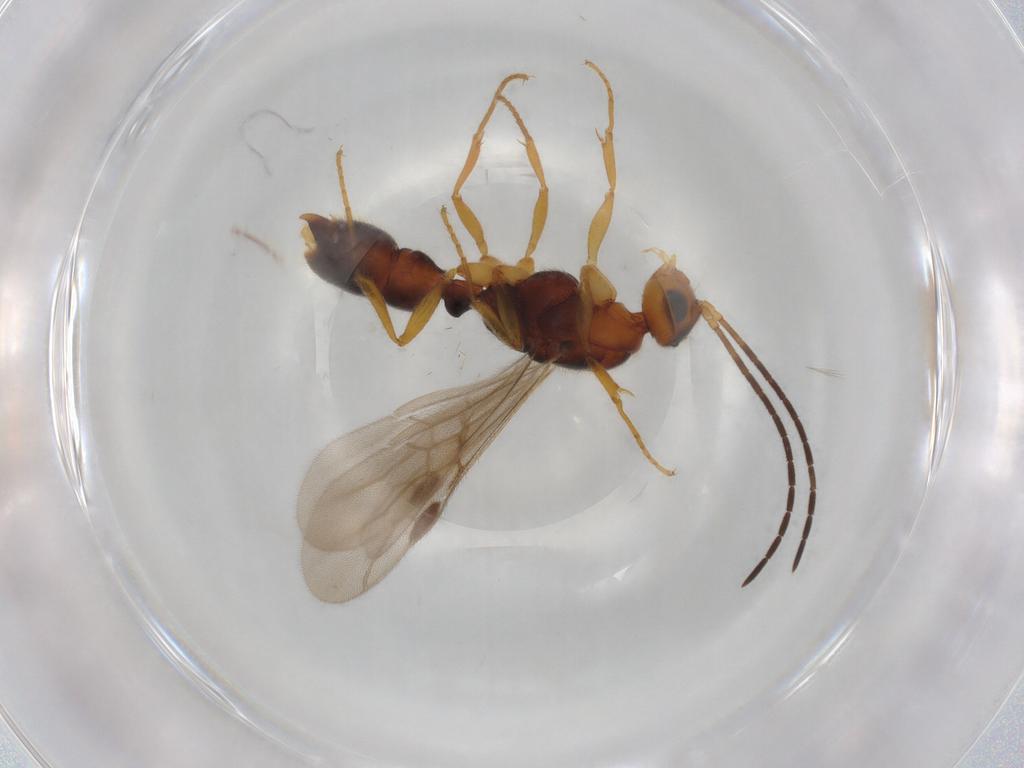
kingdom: Animalia
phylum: Arthropoda
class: Insecta
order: Hymenoptera
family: Formicidae
